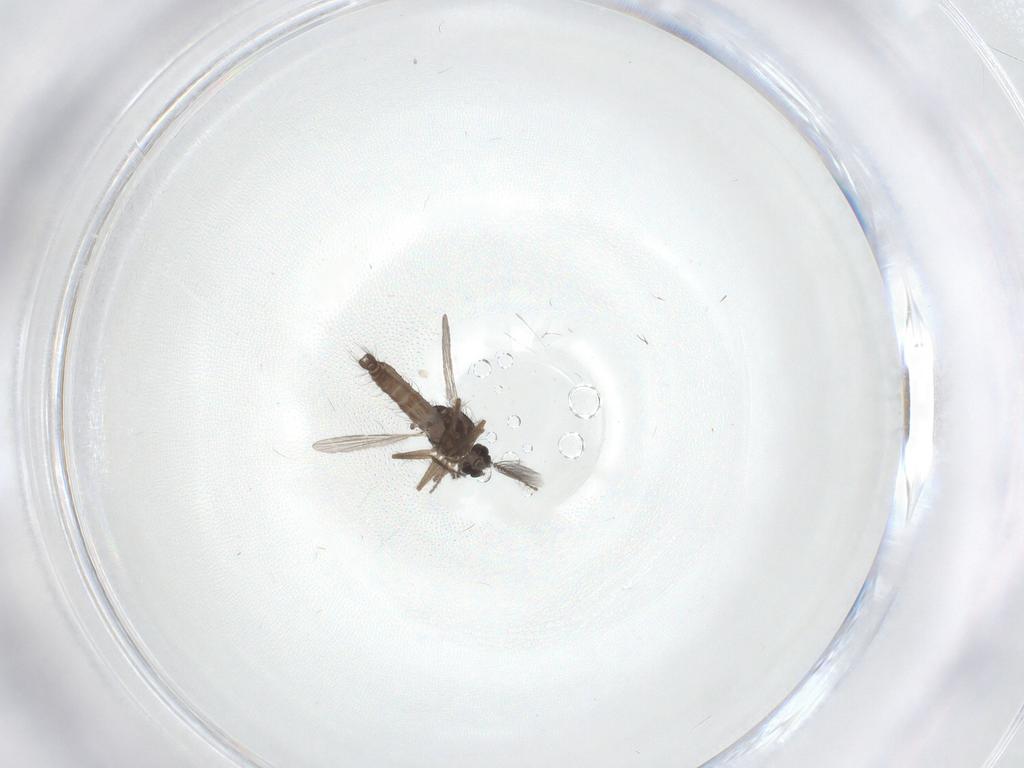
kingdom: Animalia
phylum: Arthropoda
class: Insecta
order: Diptera
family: Ceratopogonidae
